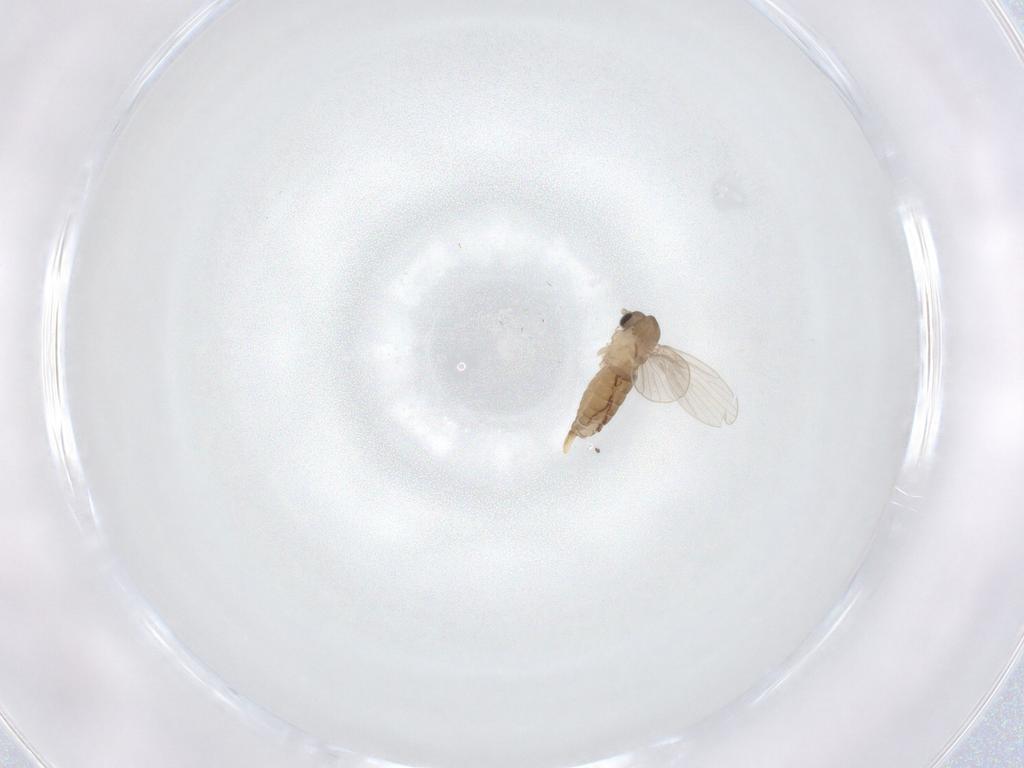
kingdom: Animalia
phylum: Arthropoda
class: Insecta
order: Diptera
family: Psychodidae
